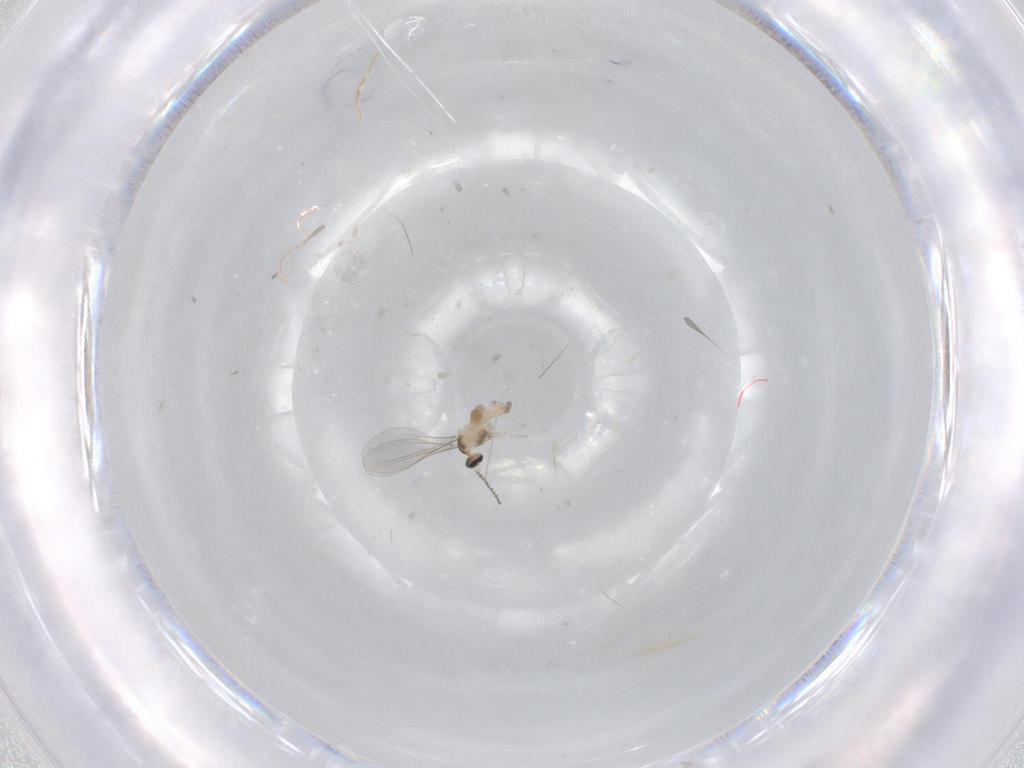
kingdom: Animalia
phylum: Arthropoda
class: Insecta
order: Diptera
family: Cecidomyiidae
